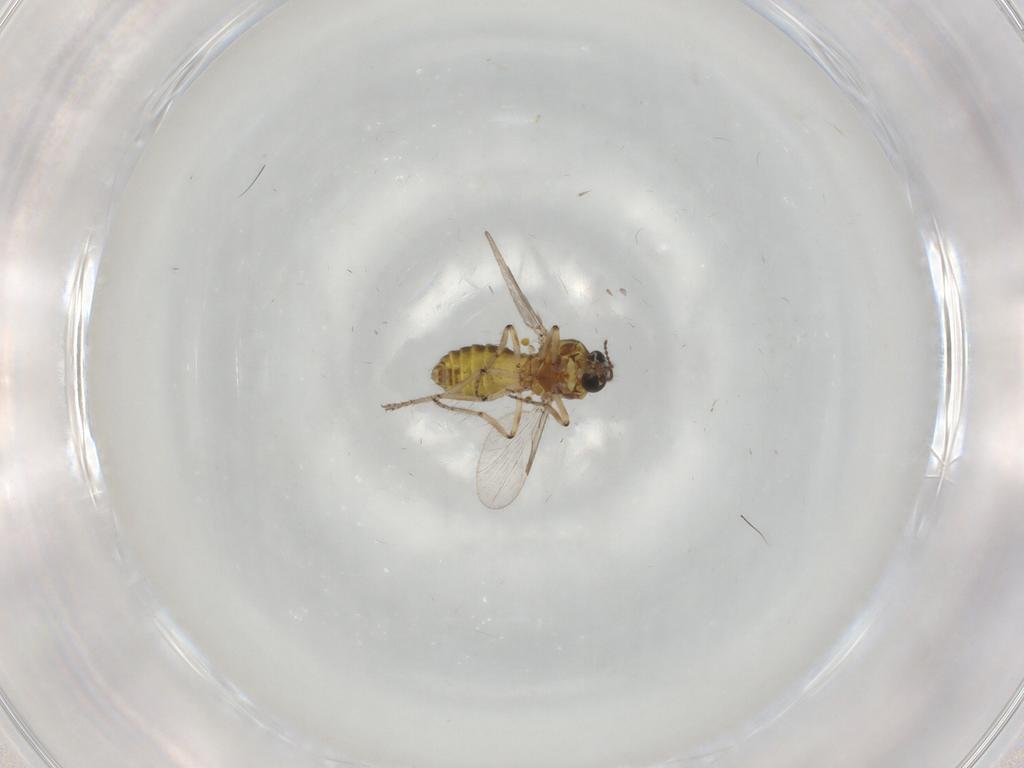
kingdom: Animalia
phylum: Arthropoda
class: Insecta
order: Diptera
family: Ceratopogonidae
